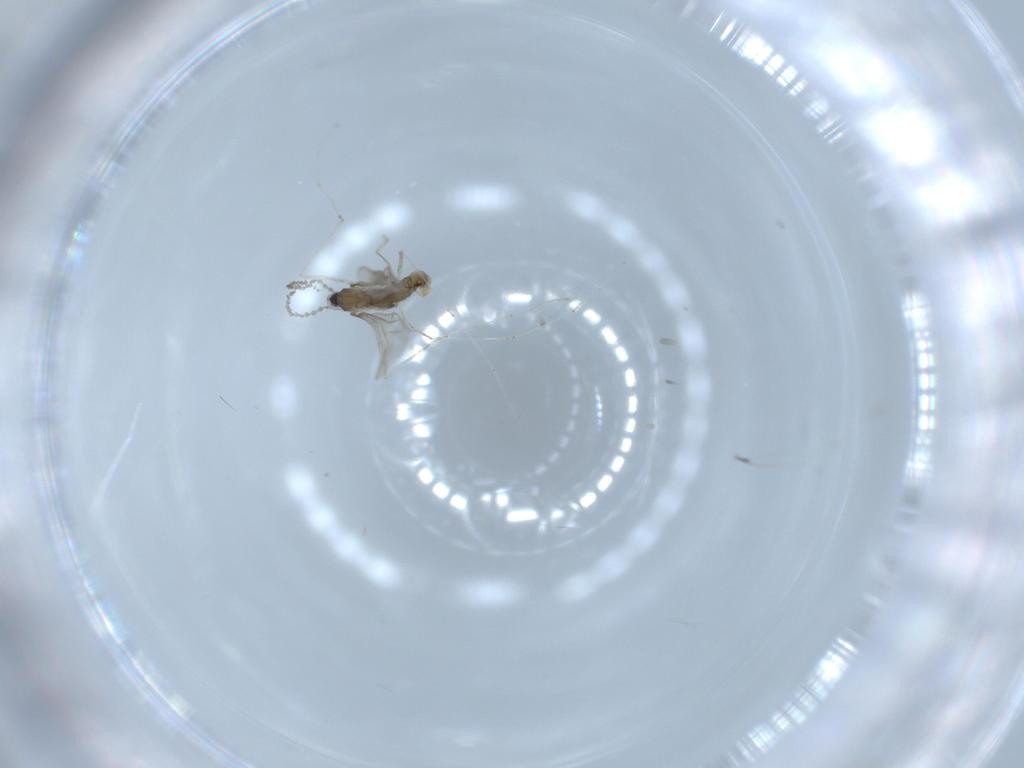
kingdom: Animalia
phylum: Arthropoda
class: Insecta
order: Diptera
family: Cecidomyiidae
